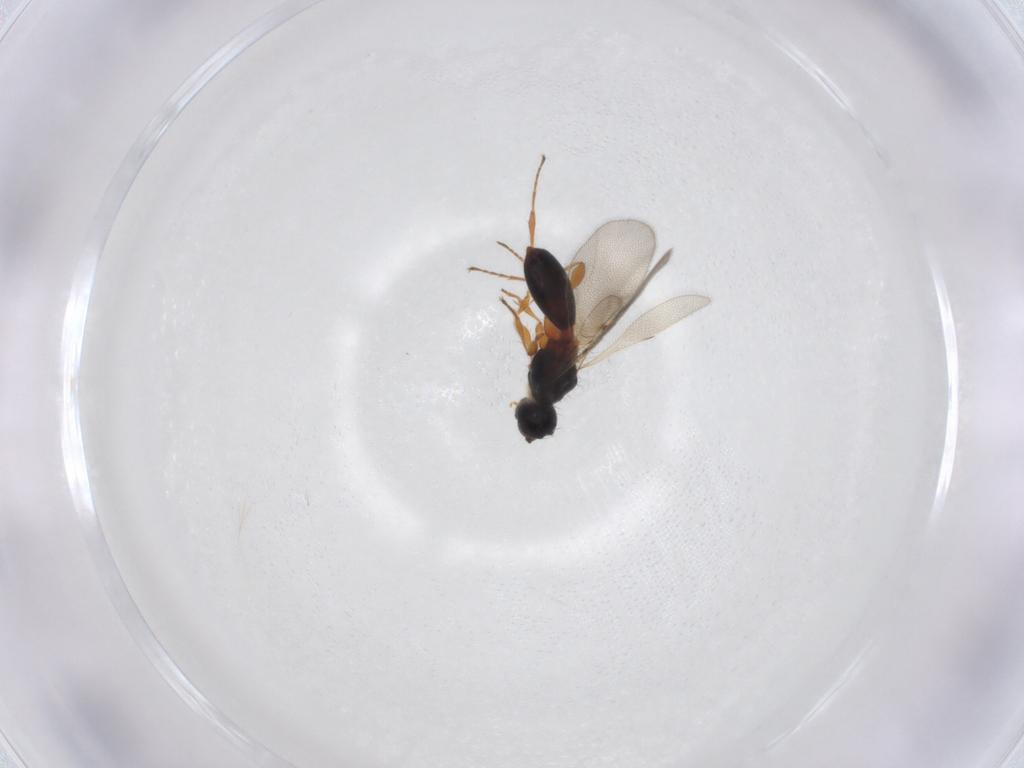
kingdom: Animalia
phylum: Arthropoda
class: Insecta
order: Hymenoptera
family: Diapriidae
